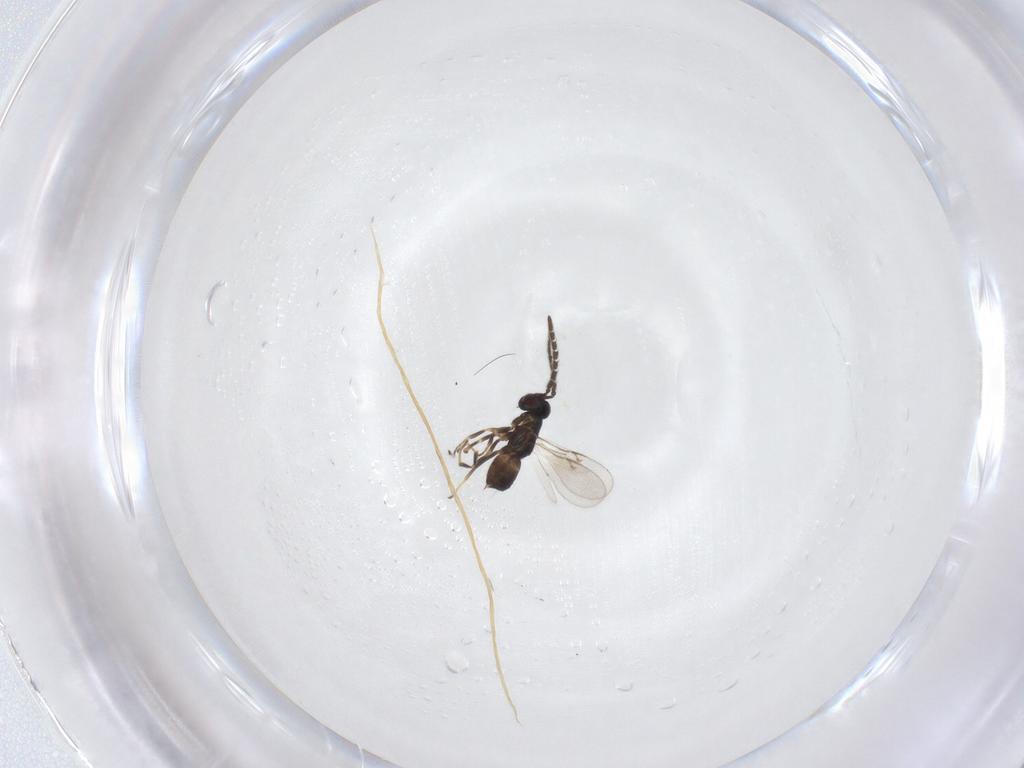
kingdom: Animalia
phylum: Arthropoda
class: Insecta
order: Hymenoptera
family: Bethylidae
